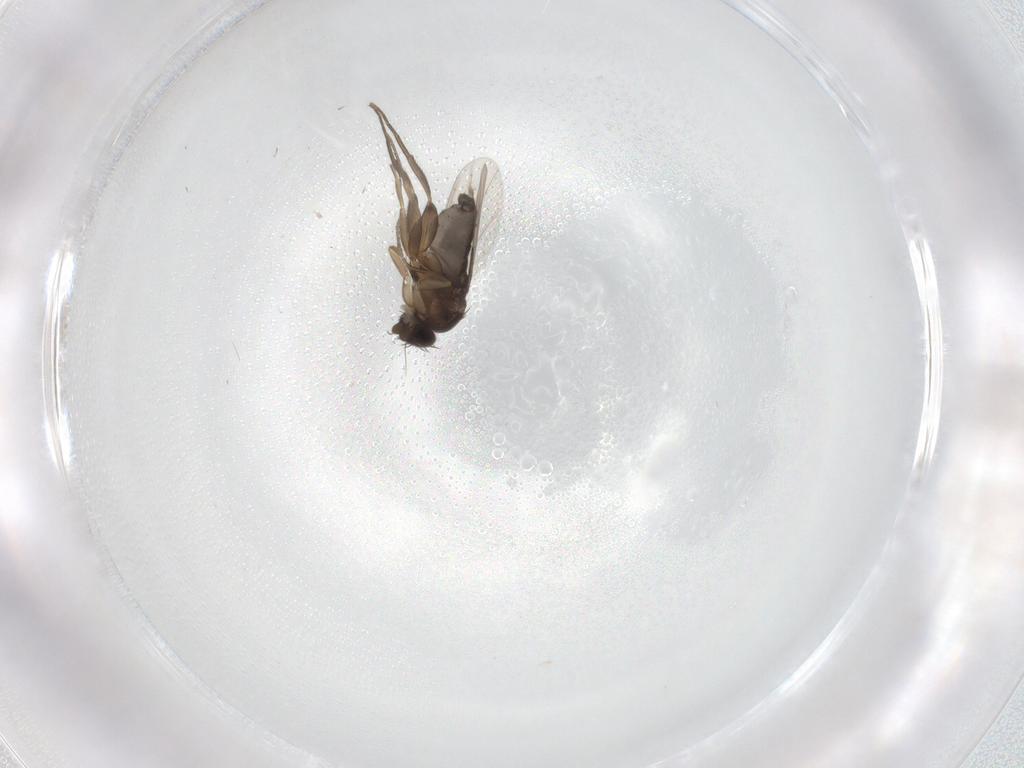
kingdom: Animalia
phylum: Arthropoda
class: Insecta
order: Diptera
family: Phoridae
